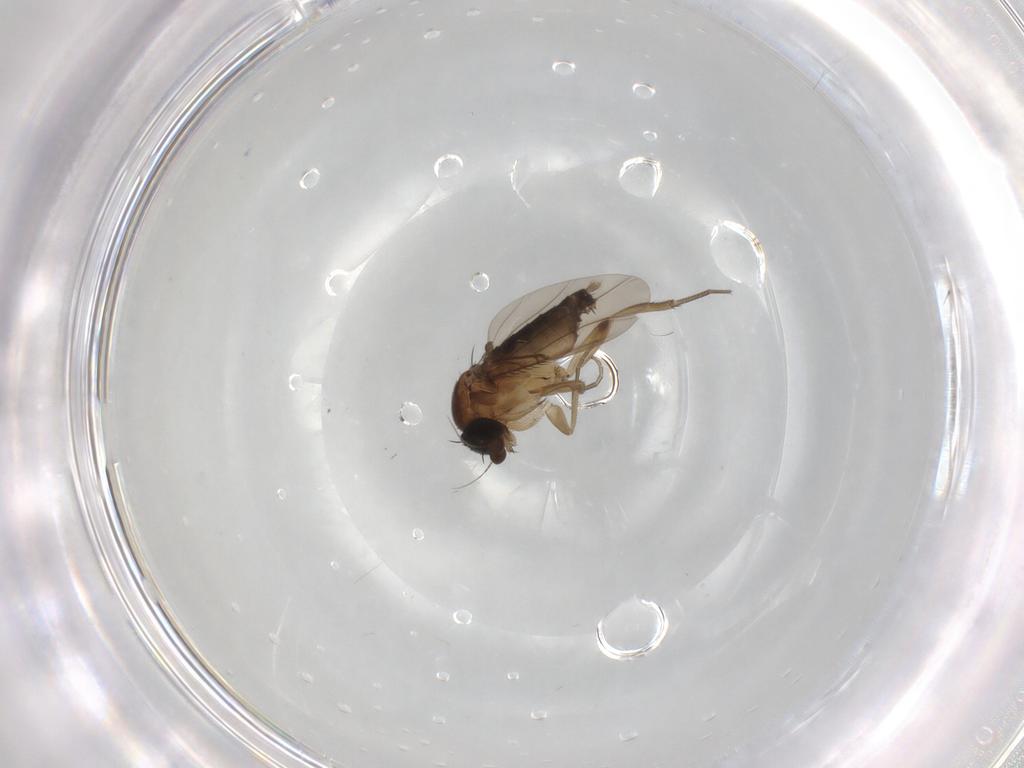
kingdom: Animalia
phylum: Arthropoda
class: Insecta
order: Diptera
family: Phoridae
